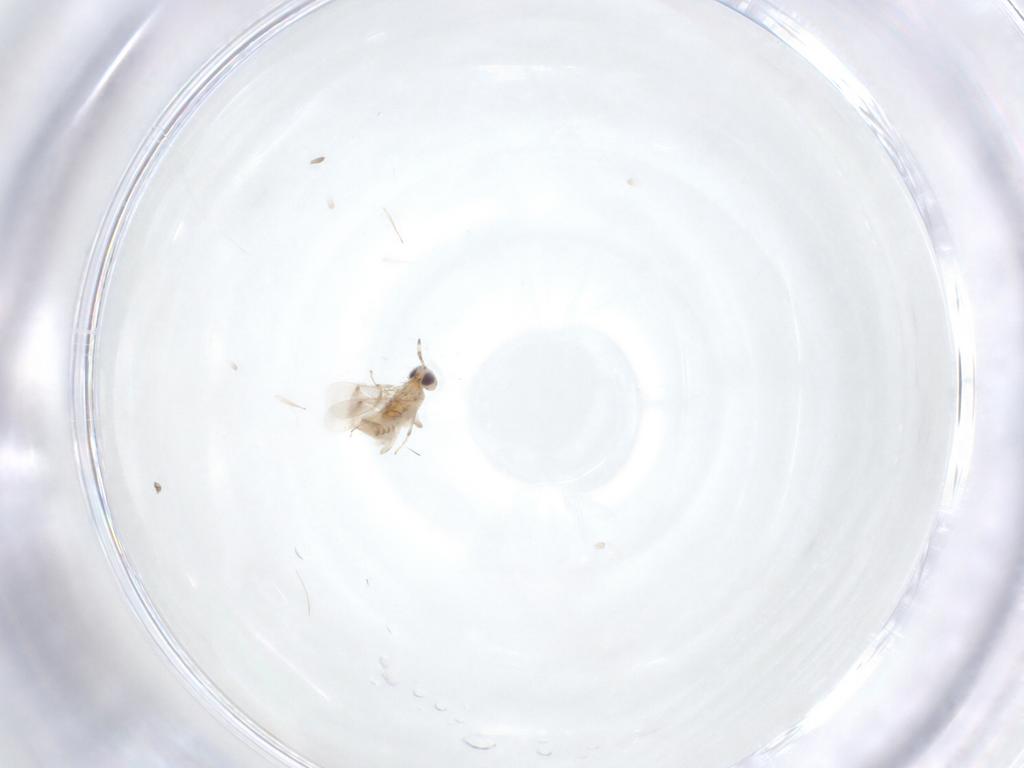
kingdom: Animalia
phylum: Arthropoda
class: Insecta
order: Hymenoptera
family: Aphelinidae
